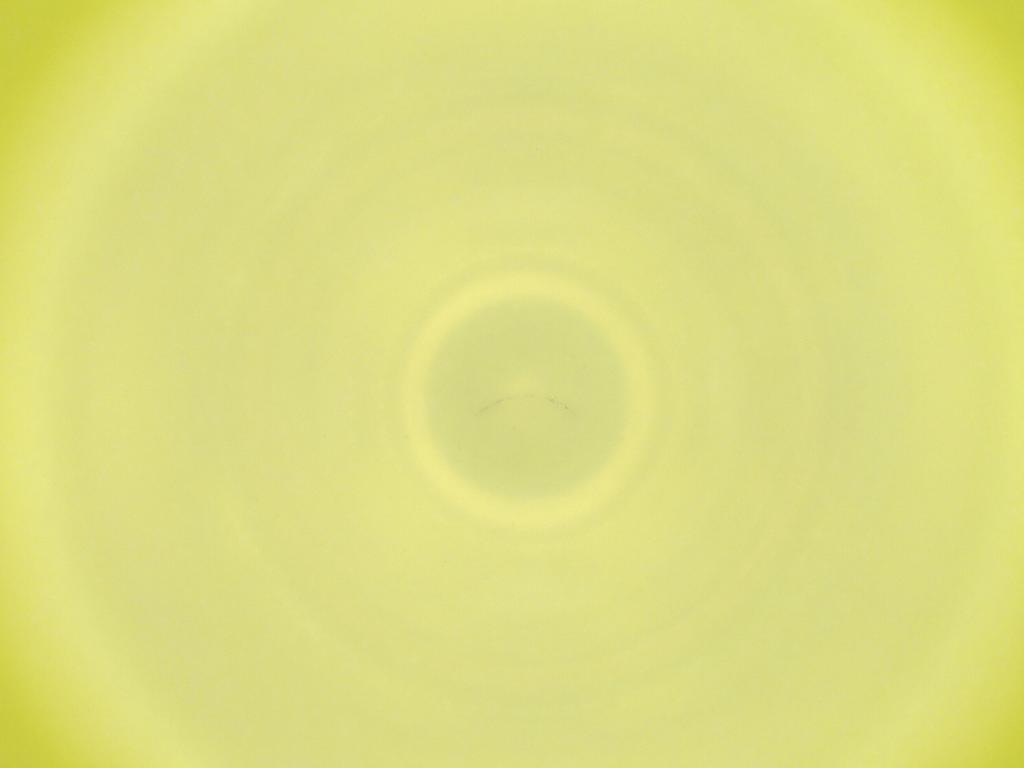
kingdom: Animalia
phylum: Arthropoda
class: Insecta
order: Diptera
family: Cecidomyiidae
